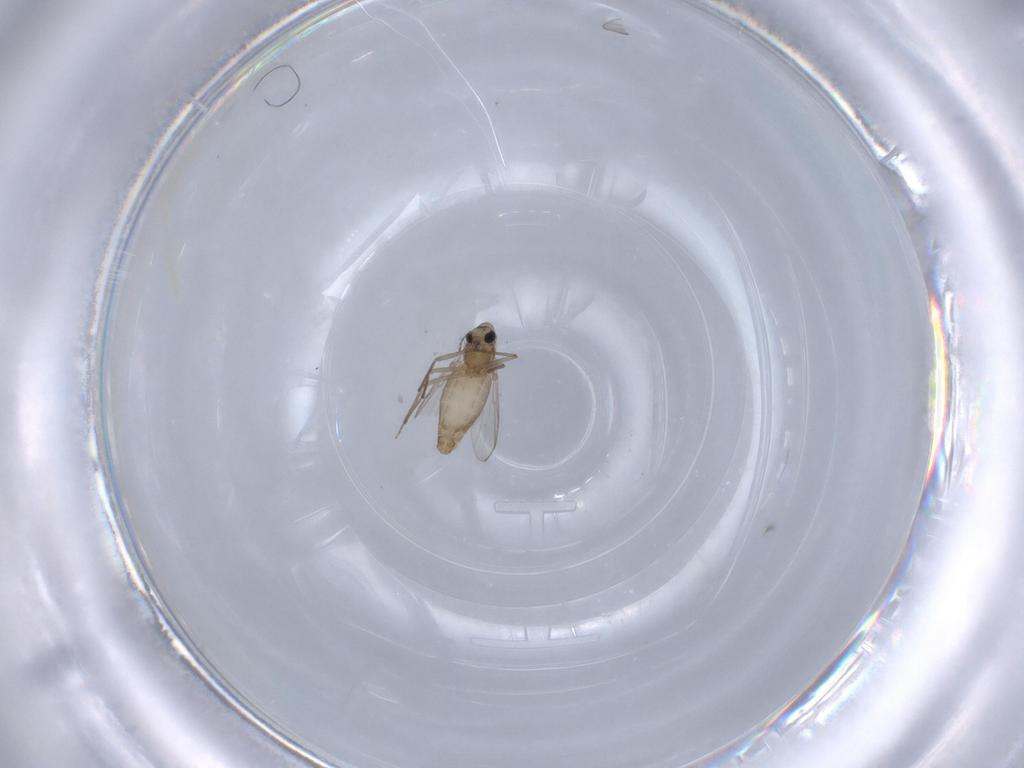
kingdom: Animalia
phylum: Arthropoda
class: Insecta
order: Diptera
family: Chironomidae
